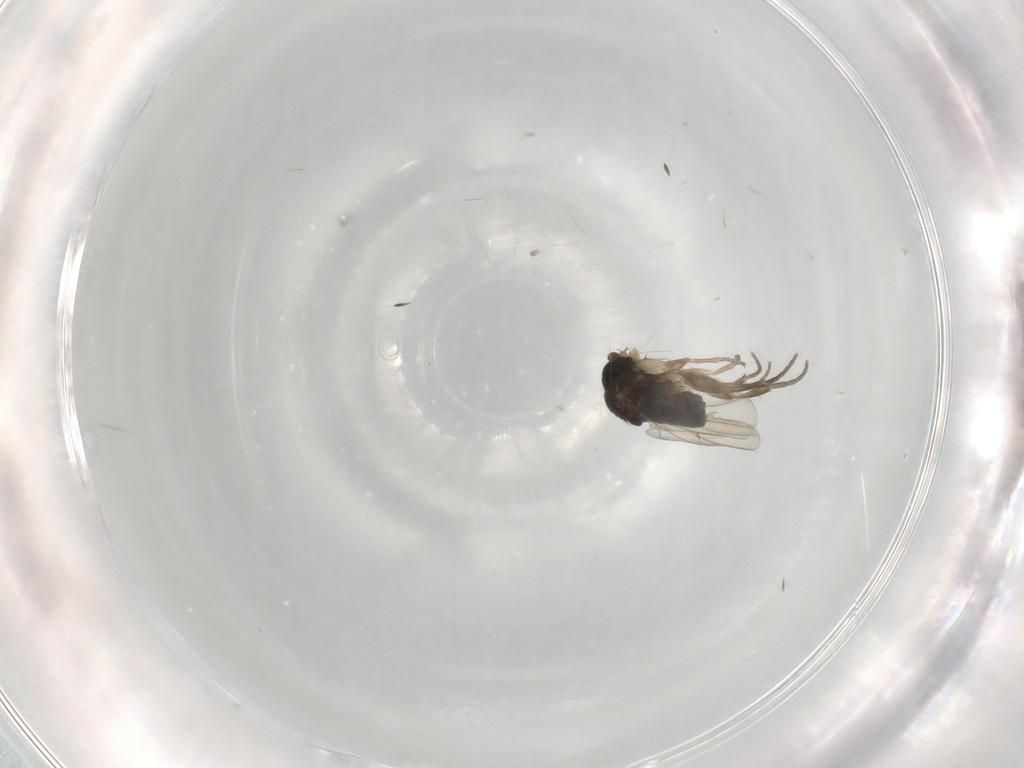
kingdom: Animalia
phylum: Arthropoda
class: Insecta
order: Diptera
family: Phoridae
